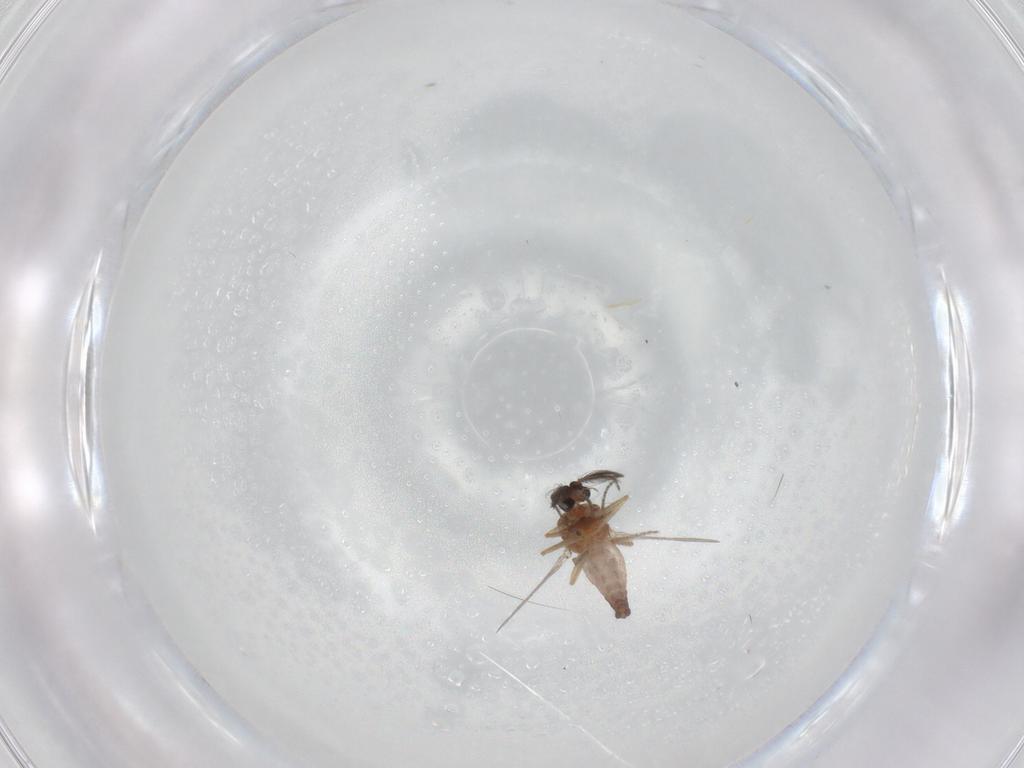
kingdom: Animalia
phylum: Arthropoda
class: Insecta
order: Diptera
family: Ceratopogonidae
